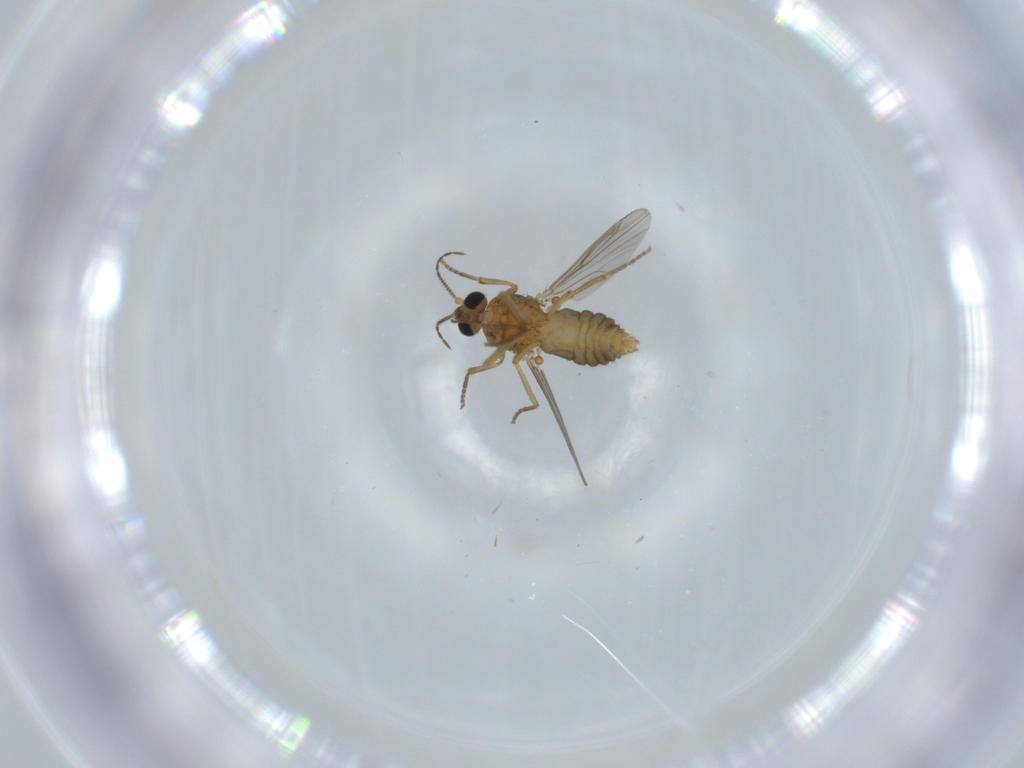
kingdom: Animalia
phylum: Arthropoda
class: Insecta
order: Diptera
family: Ceratopogonidae
